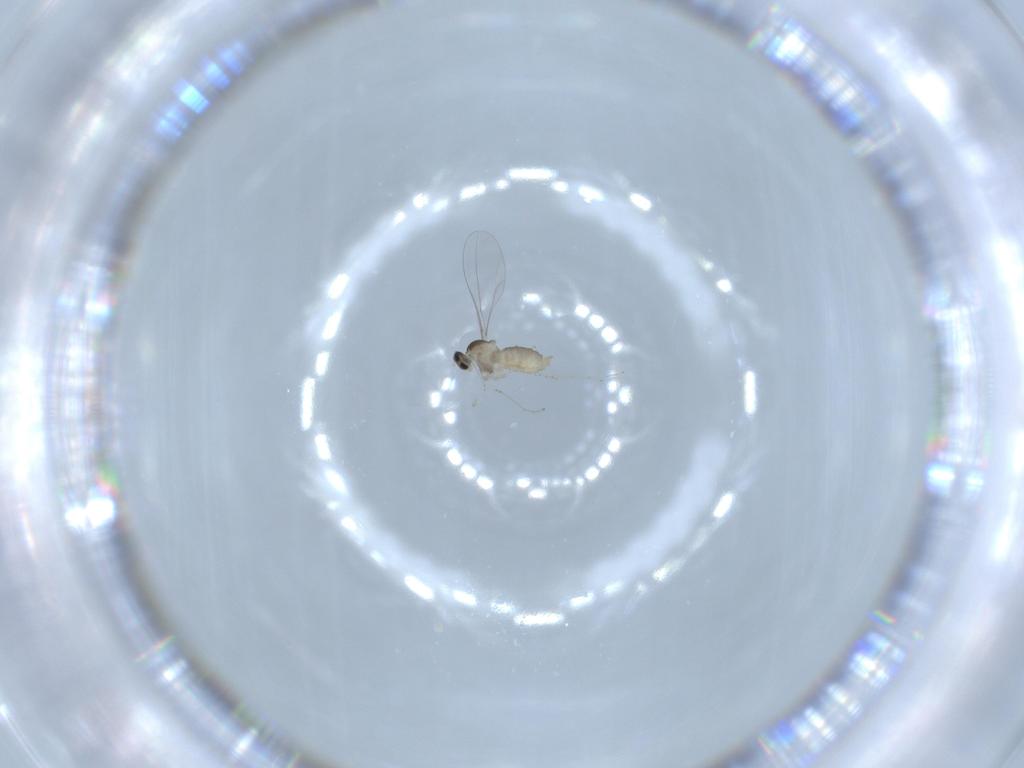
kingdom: Animalia
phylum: Arthropoda
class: Insecta
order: Diptera
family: Cecidomyiidae
